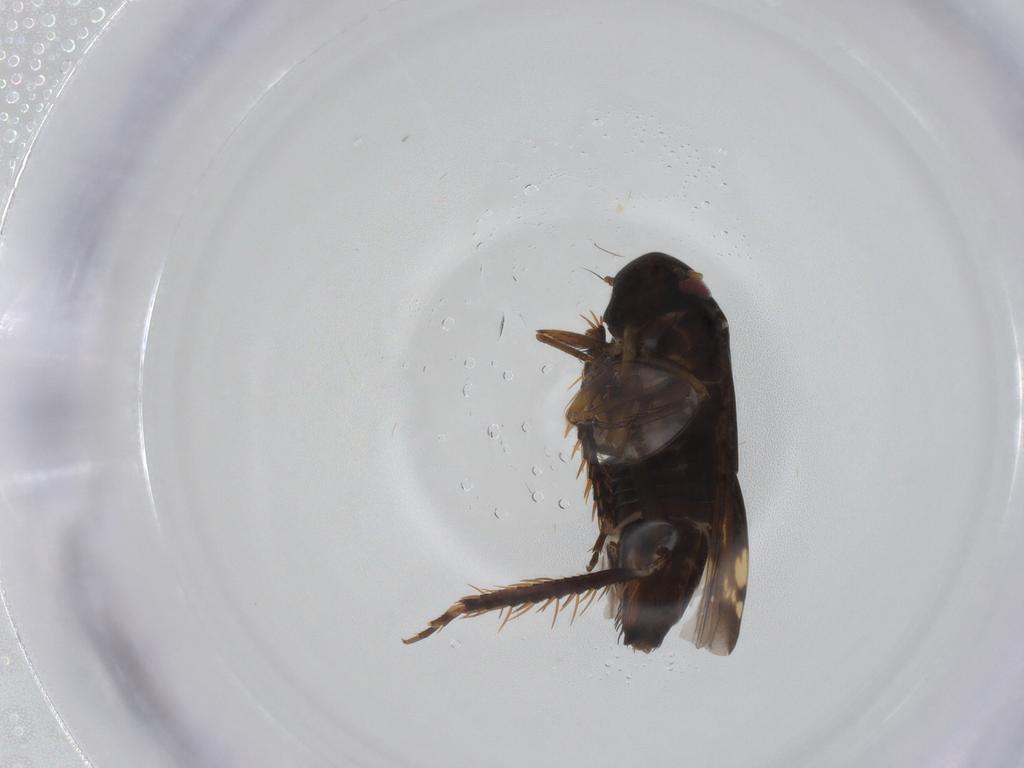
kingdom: Animalia
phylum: Arthropoda
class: Insecta
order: Hemiptera
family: Cicadellidae
